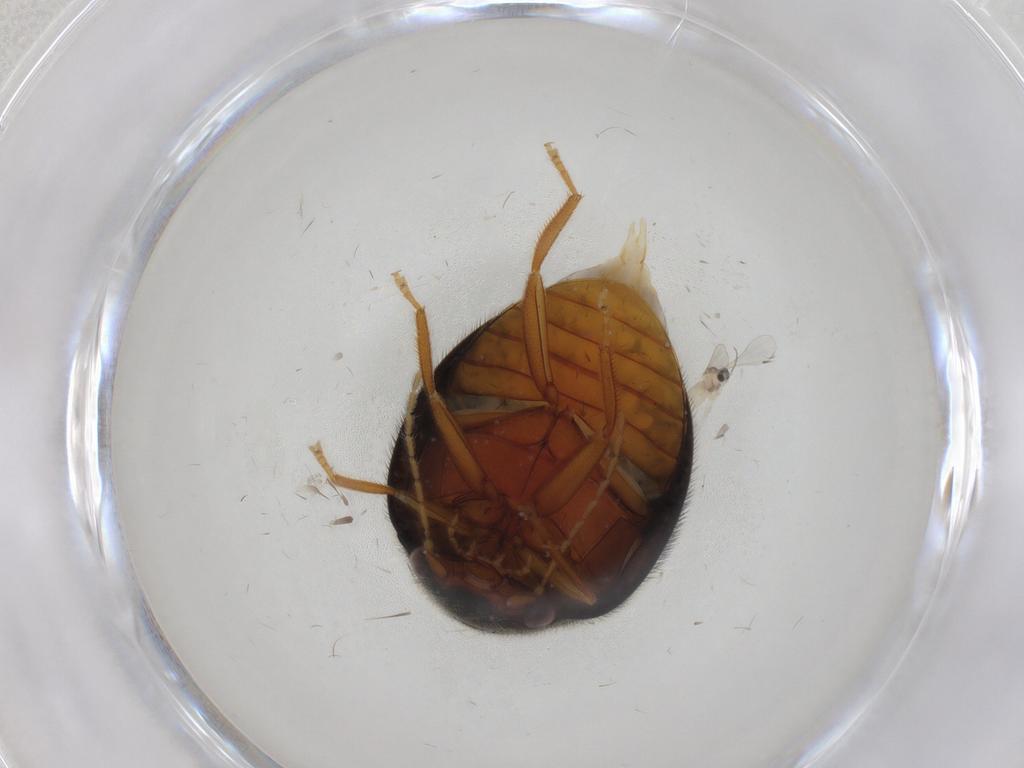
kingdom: Animalia
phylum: Arthropoda
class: Insecta
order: Coleoptera
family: Scirtidae
